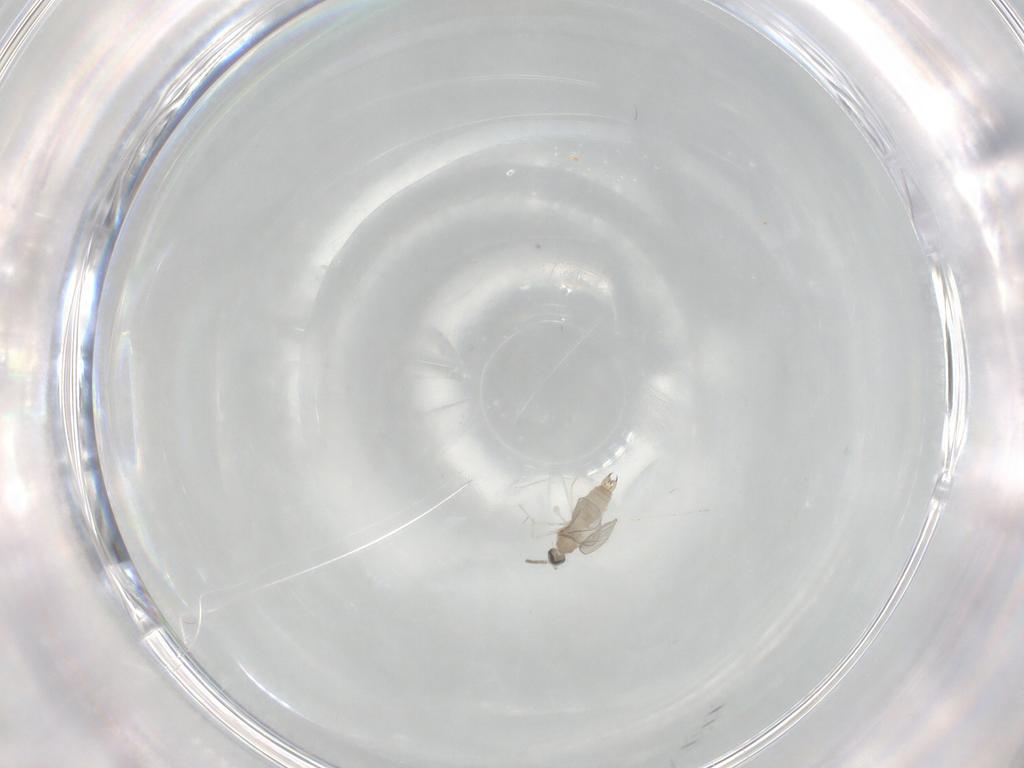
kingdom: Animalia
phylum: Arthropoda
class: Insecta
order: Diptera
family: Cecidomyiidae
